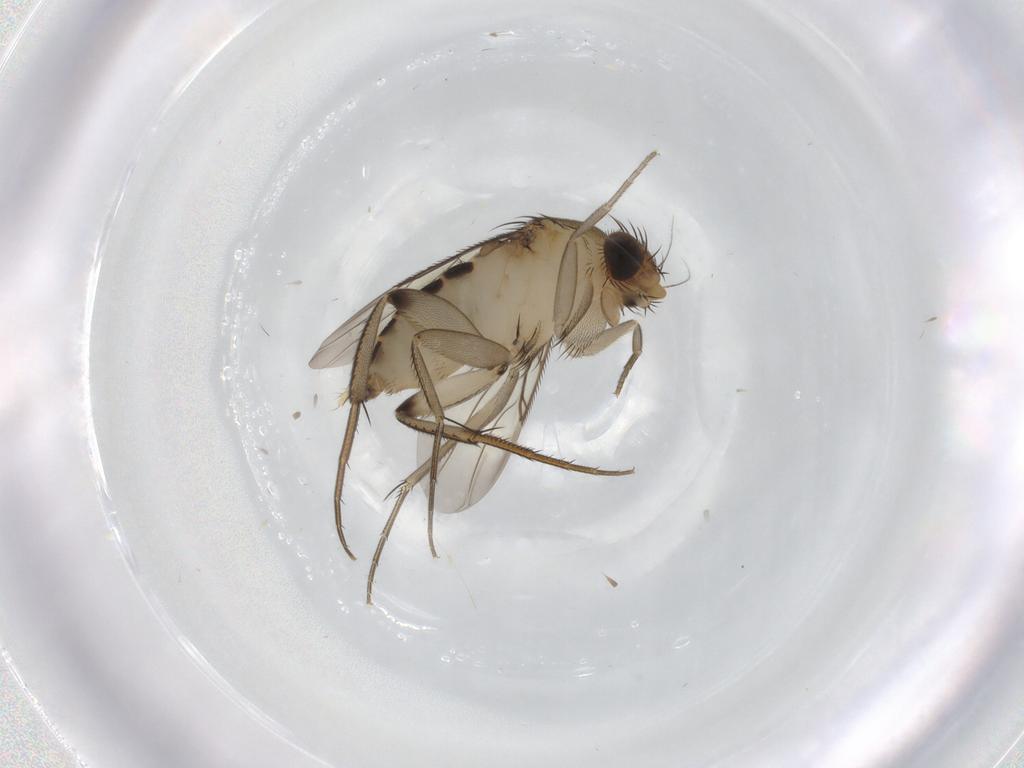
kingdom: Animalia
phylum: Arthropoda
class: Insecta
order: Diptera
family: Phoridae
